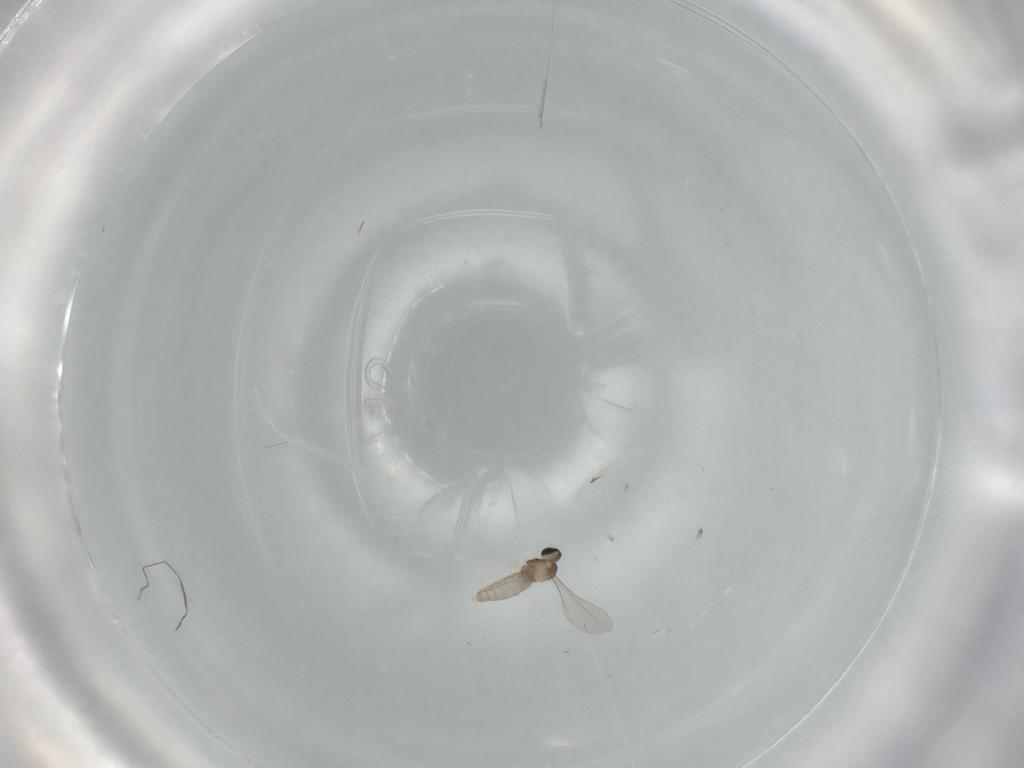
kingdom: Animalia
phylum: Arthropoda
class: Insecta
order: Diptera
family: Chironomidae
